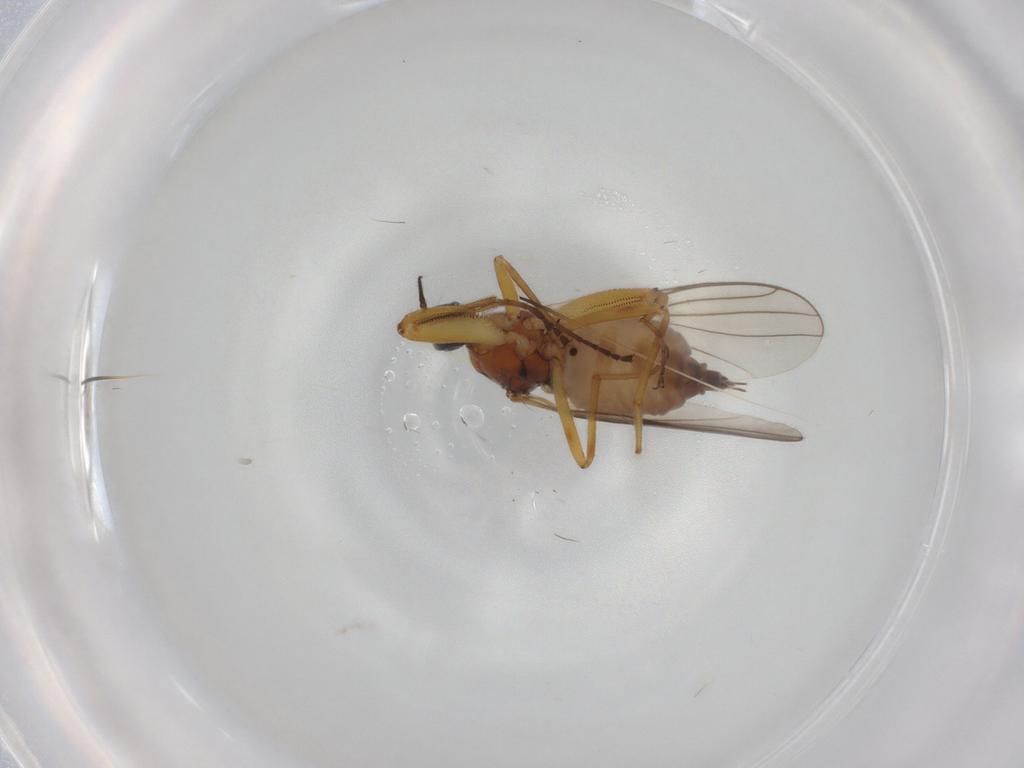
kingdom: Animalia
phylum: Arthropoda
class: Insecta
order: Diptera
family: Hybotidae
